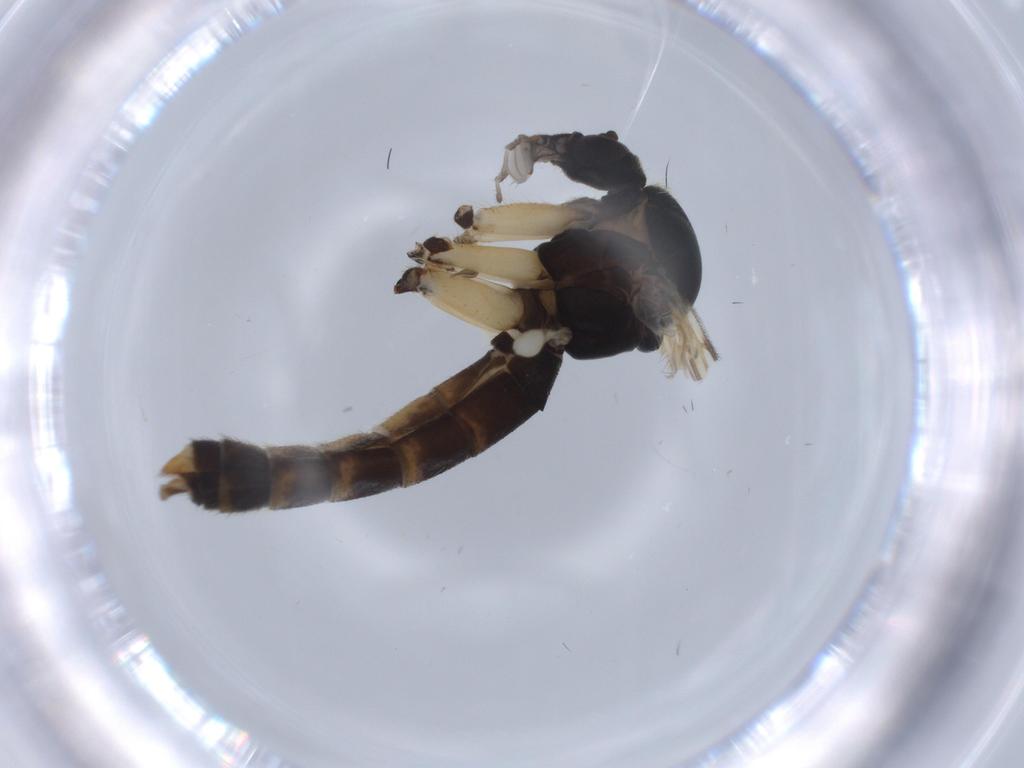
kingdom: Animalia
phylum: Arthropoda
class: Insecta
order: Diptera
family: Mycetophilidae
